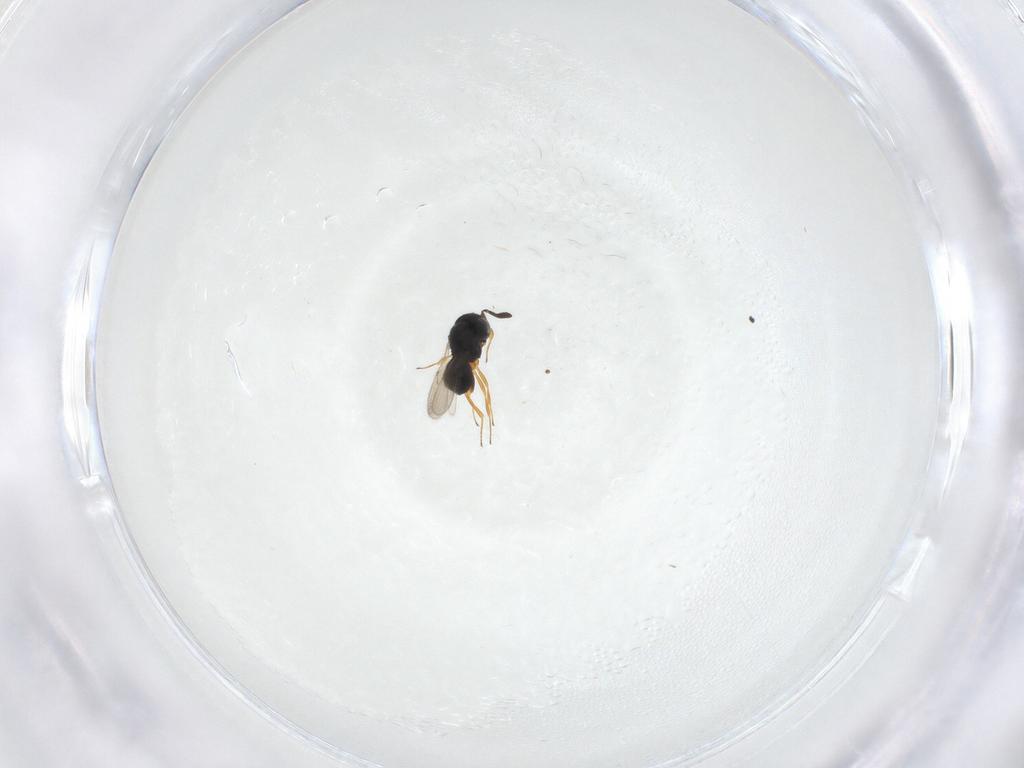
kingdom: Animalia
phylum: Arthropoda
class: Insecta
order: Hymenoptera
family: Scelionidae
